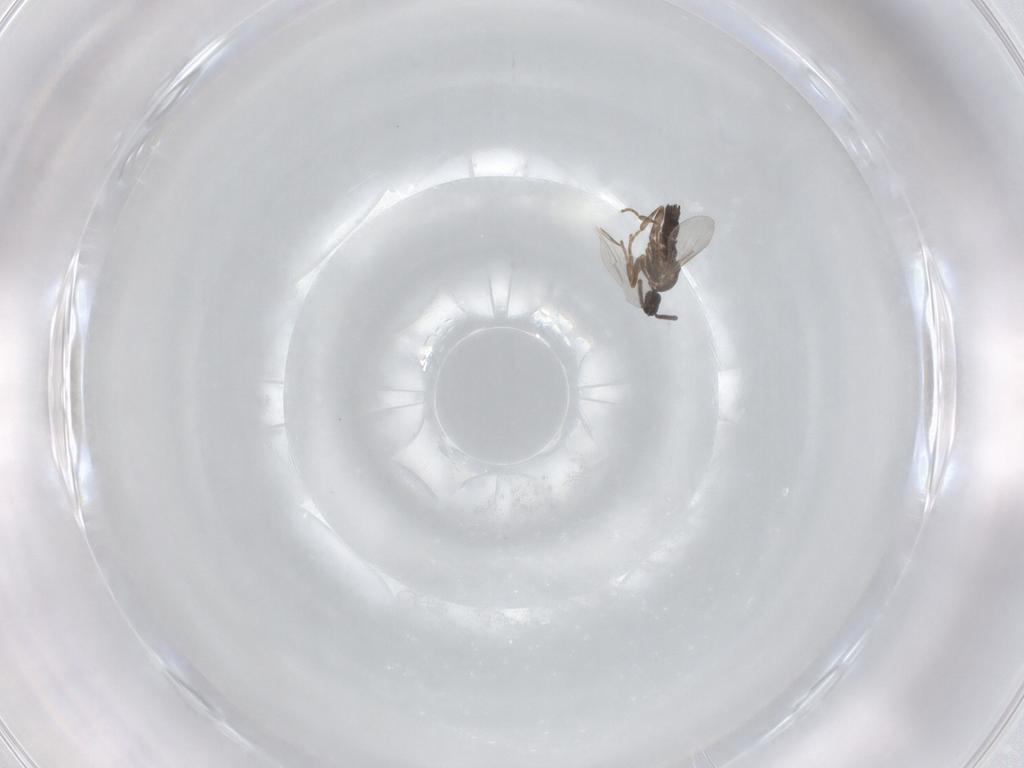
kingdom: Animalia
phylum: Arthropoda
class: Insecta
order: Diptera
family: Scatopsidae
